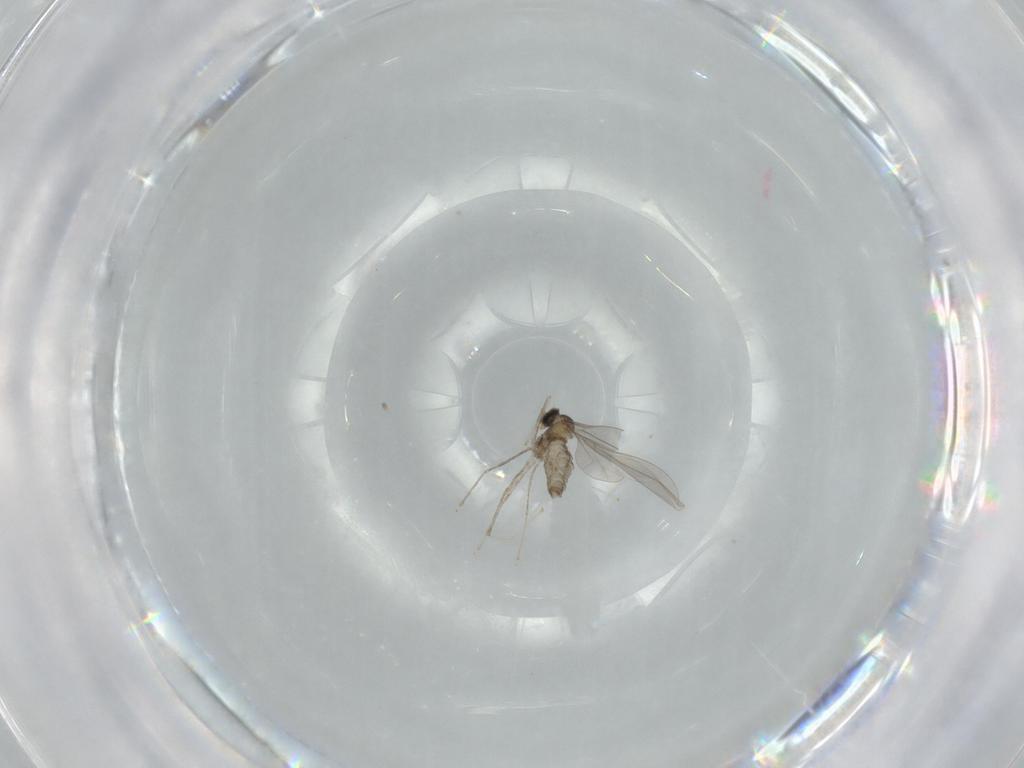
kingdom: Animalia
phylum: Arthropoda
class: Insecta
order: Diptera
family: Cecidomyiidae
